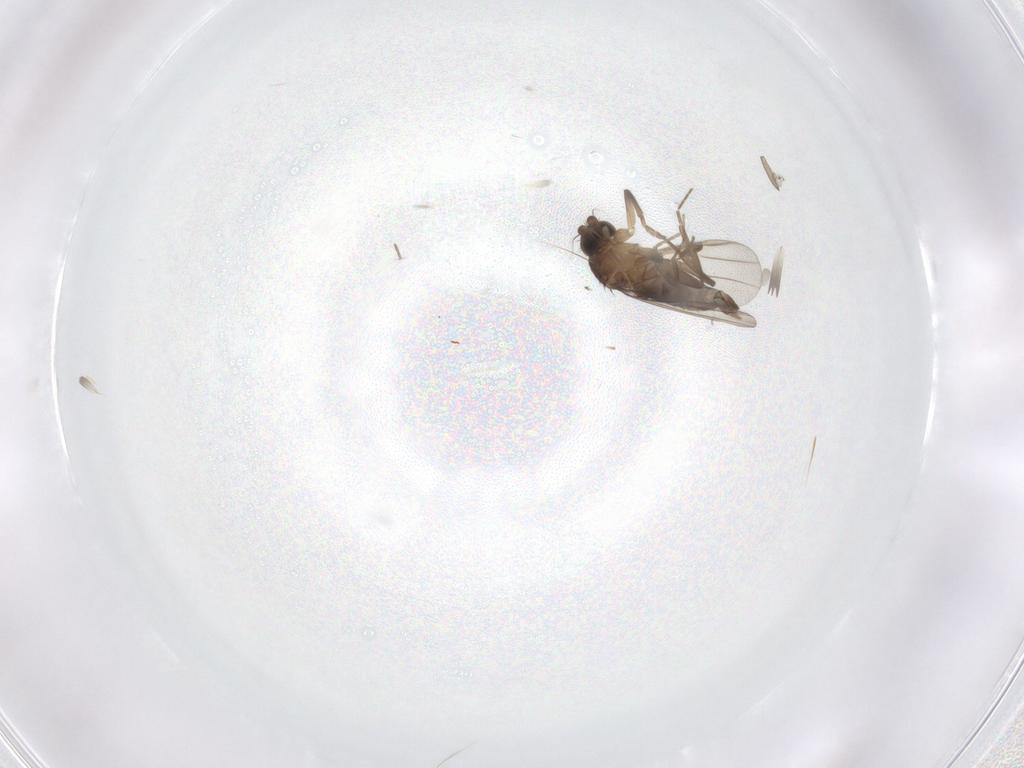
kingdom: Animalia
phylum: Arthropoda
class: Insecta
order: Diptera
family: Phoridae
